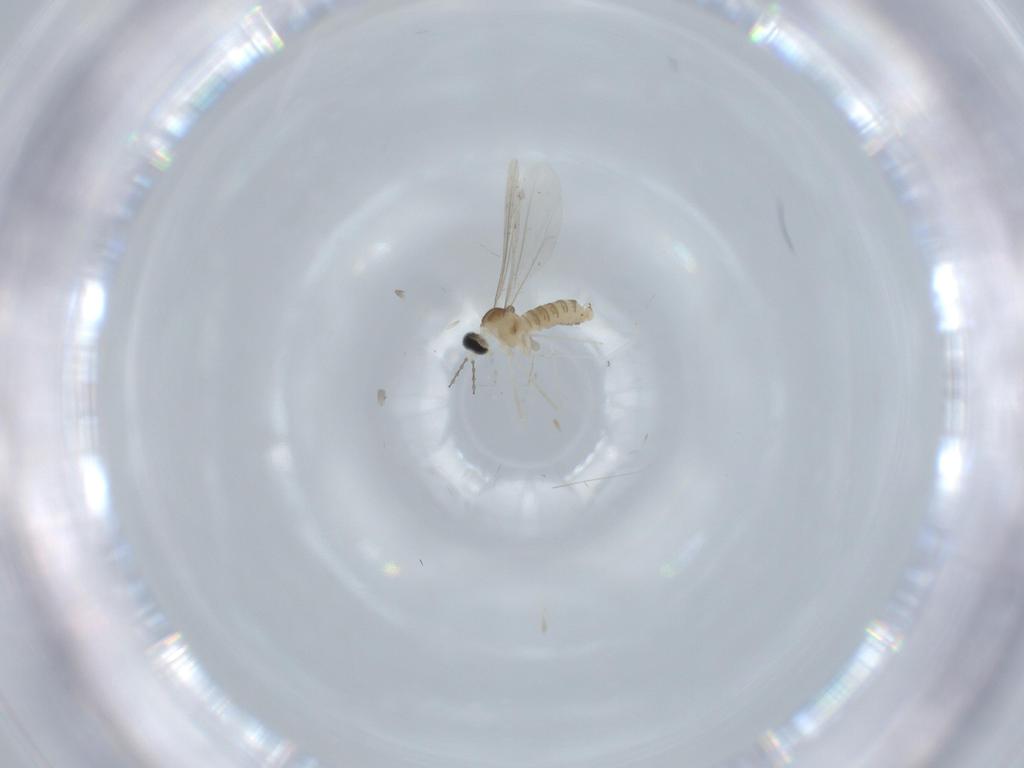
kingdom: Animalia
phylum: Arthropoda
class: Insecta
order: Diptera
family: Cecidomyiidae
